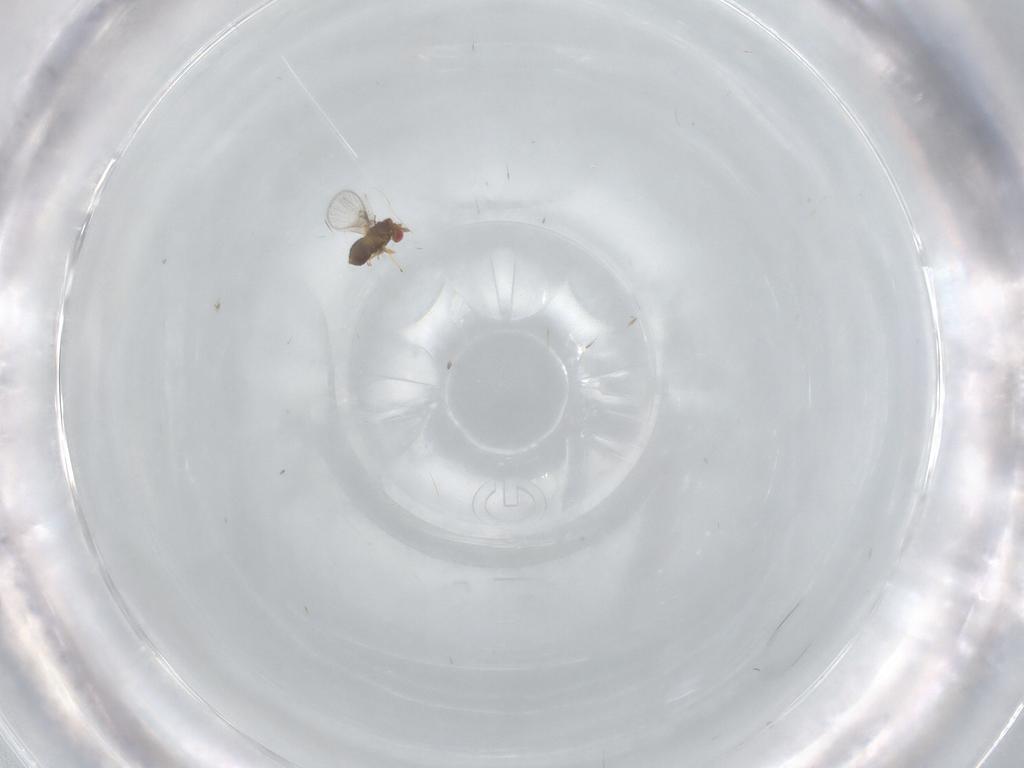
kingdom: Animalia
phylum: Arthropoda
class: Insecta
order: Hymenoptera
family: Trichogrammatidae
